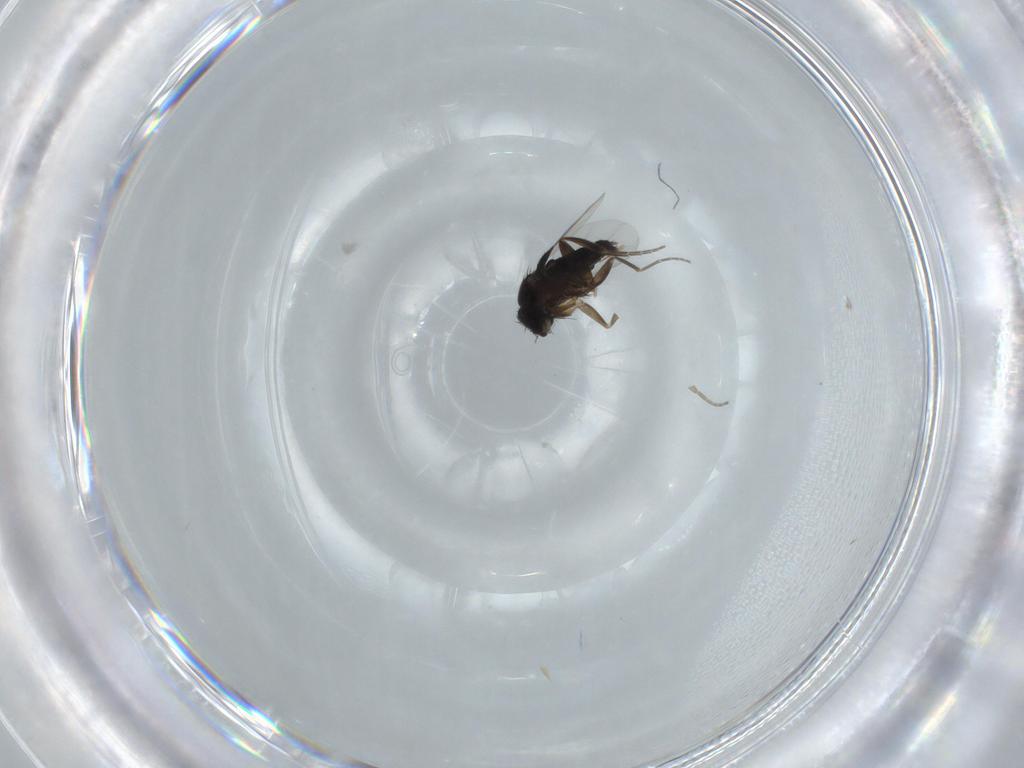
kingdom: Animalia
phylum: Arthropoda
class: Insecta
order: Diptera
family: Phoridae
